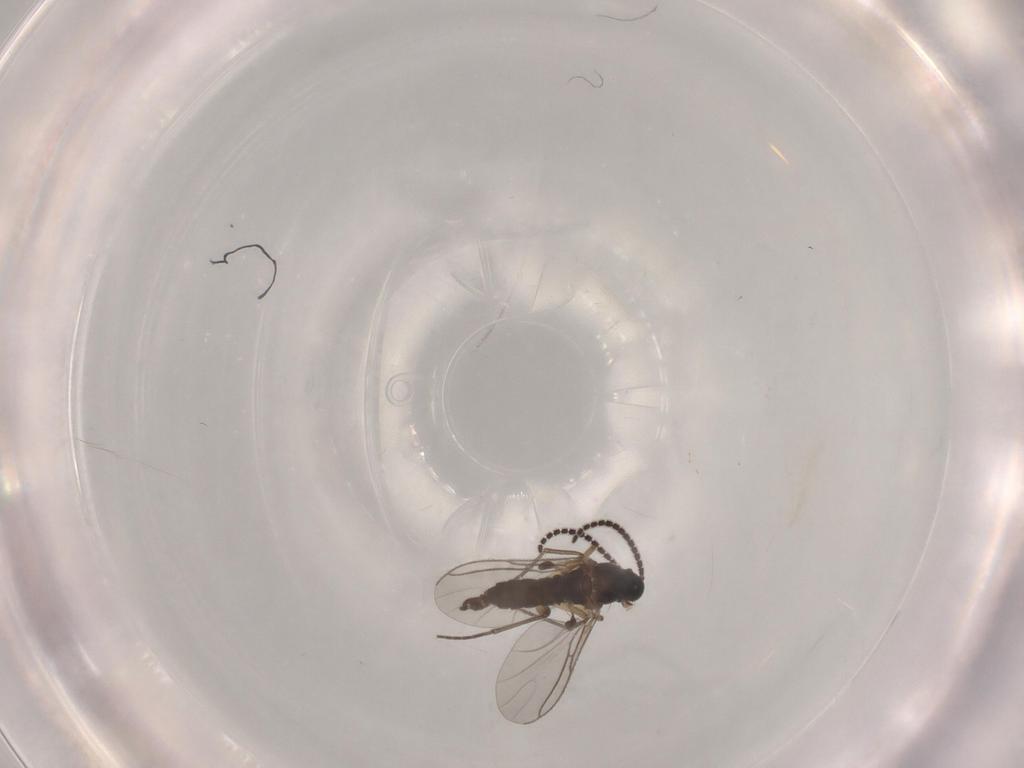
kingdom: Animalia
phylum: Arthropoda
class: Insecta
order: Diptera
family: Sciaridae
